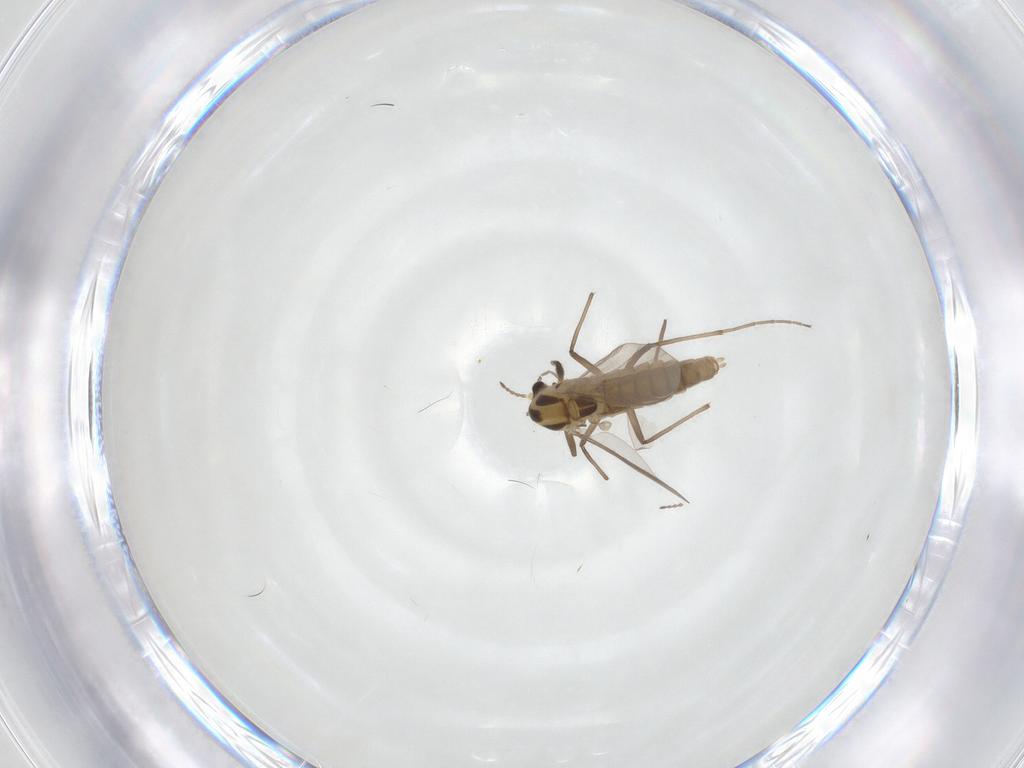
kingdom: Animalia
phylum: Arthropoda
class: Insecta
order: Diptera
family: Chironomidae
